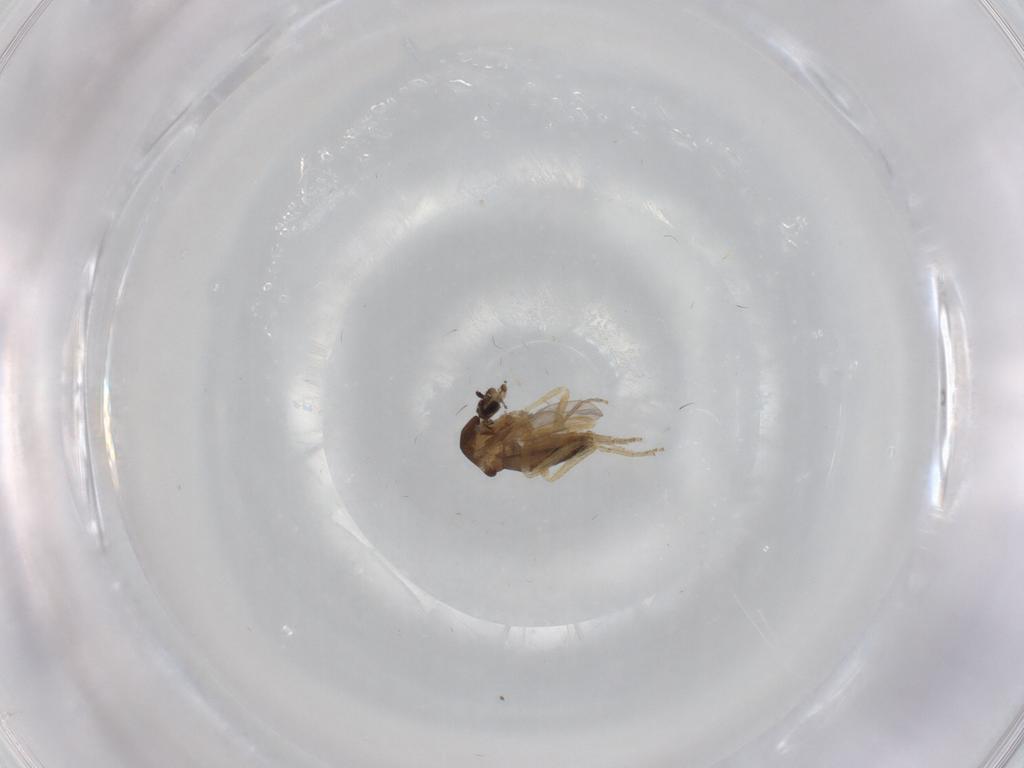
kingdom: Animalia
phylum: Arthropoda
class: Insecta
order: Diptera
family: Ceratopogonidae
